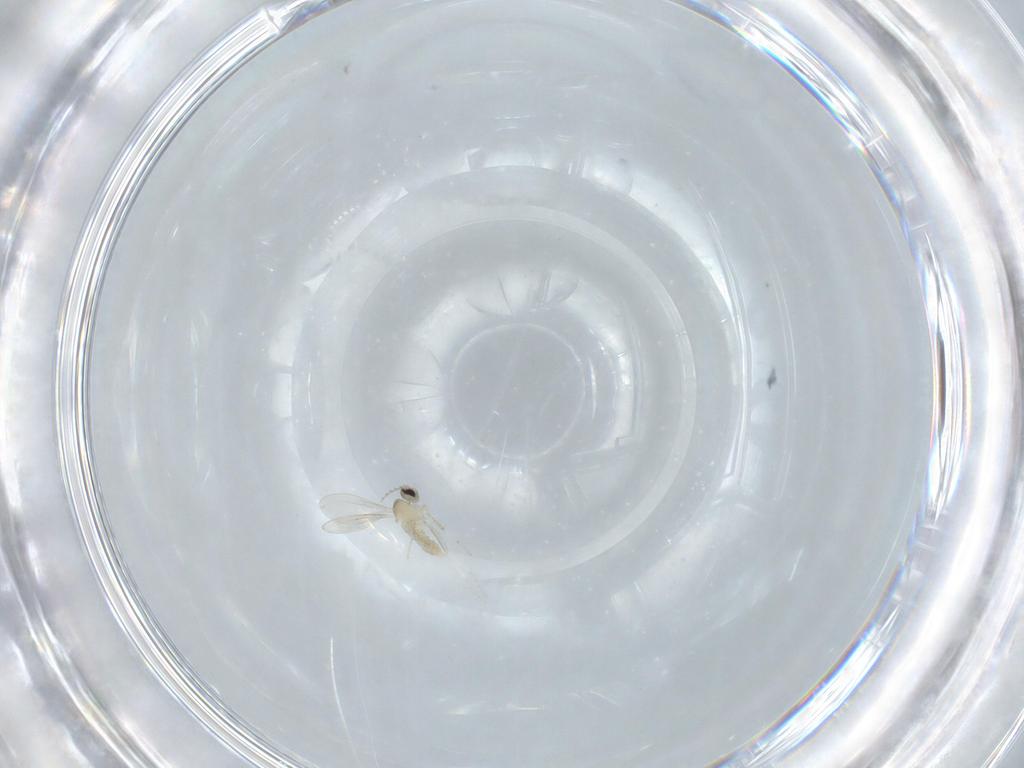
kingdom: Animalia
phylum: Arthropoda
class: Insecta
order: Diptera
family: Cecidomyiidae
